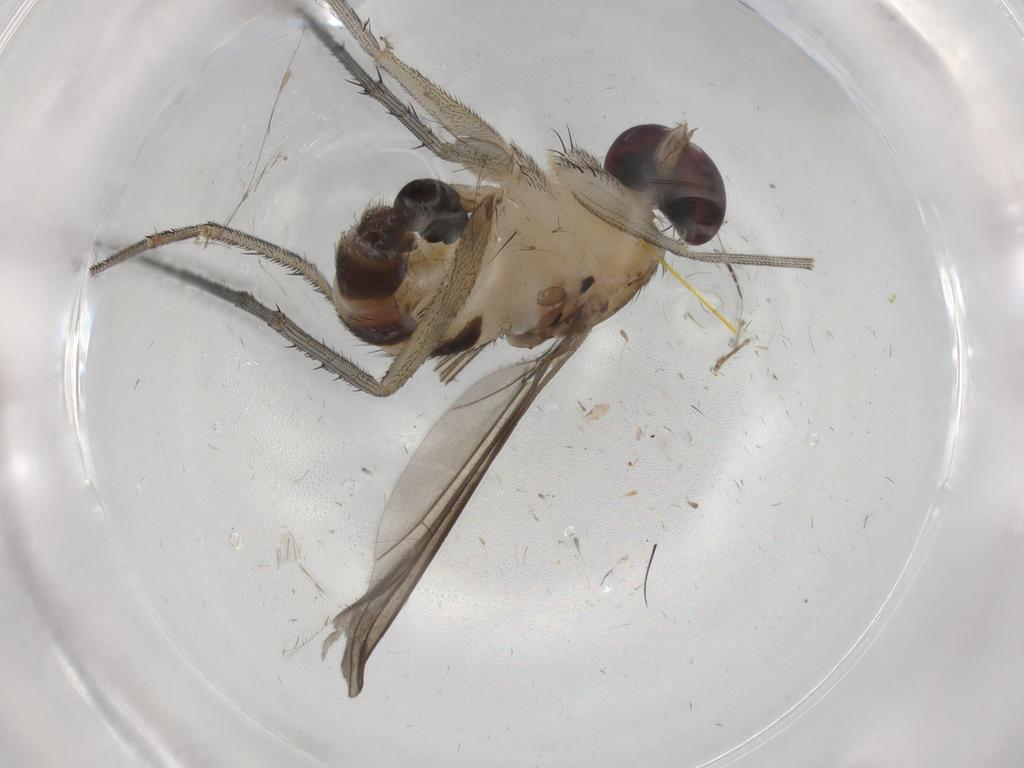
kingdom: Animalia
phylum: Arthropoda
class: Insecta
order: Diptera
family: Dolichopodidae
